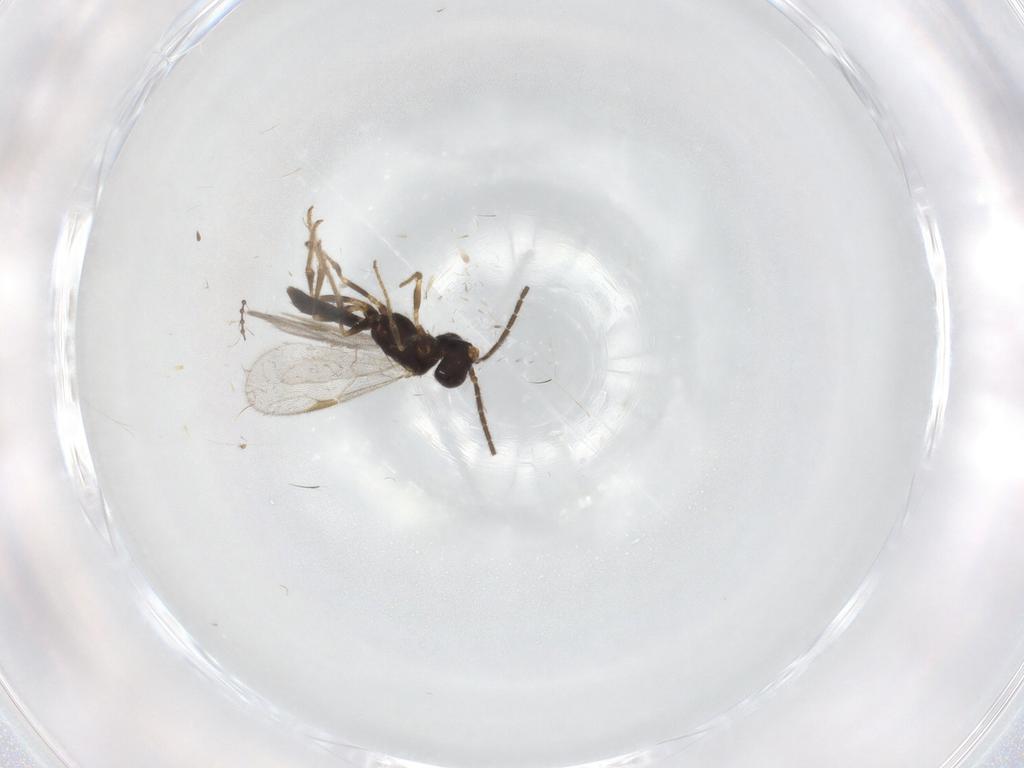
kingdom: Animalia
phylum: Arthropoda
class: Insecta
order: Hymenoptera
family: Dryinidae
